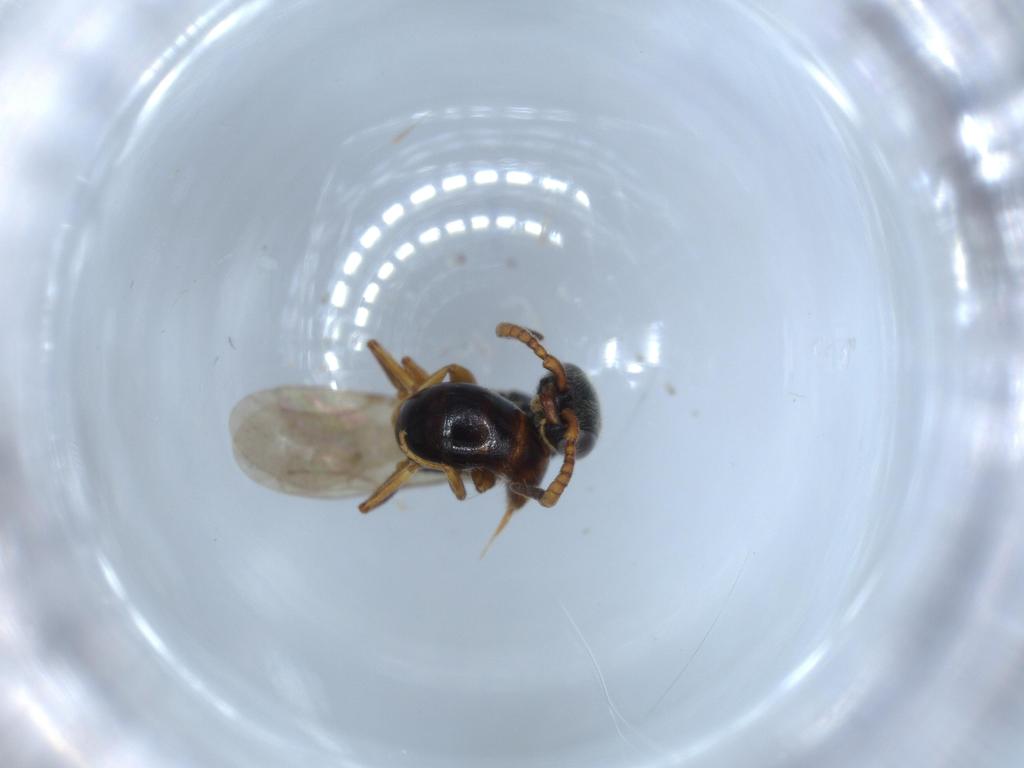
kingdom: Animalia
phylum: Arthropoda
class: Insecta
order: Hymenoptera
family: Bethylidae
